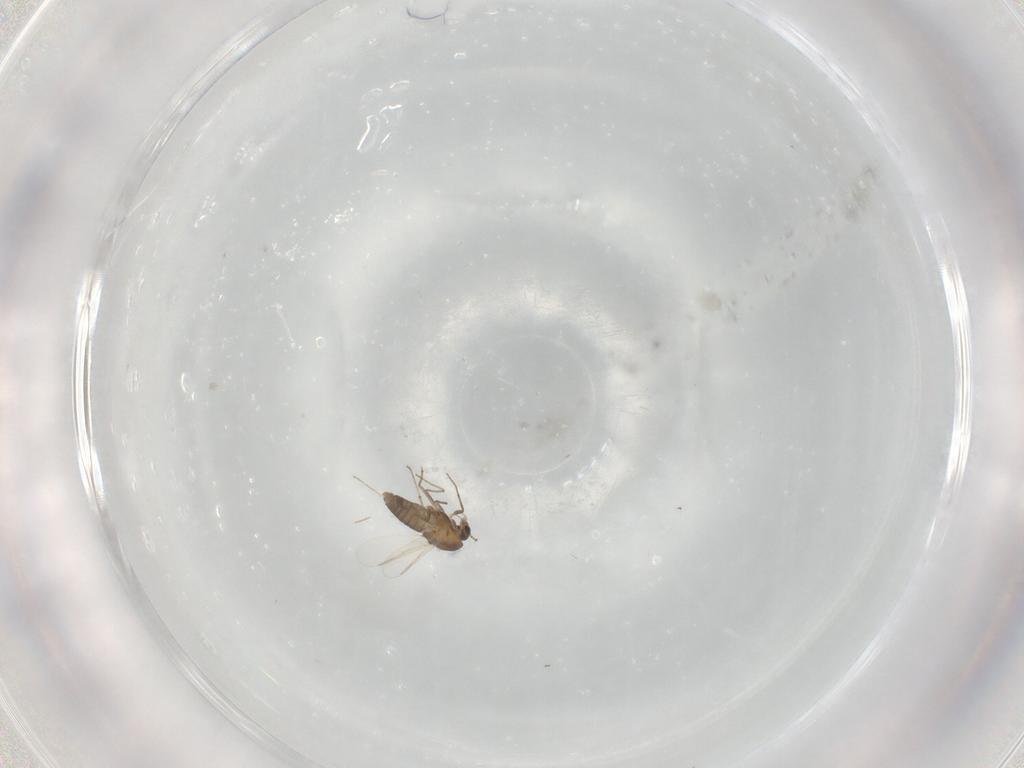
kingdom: Animalia
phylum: Arthropoda
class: Insecta
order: Diptera
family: Chironomidae
